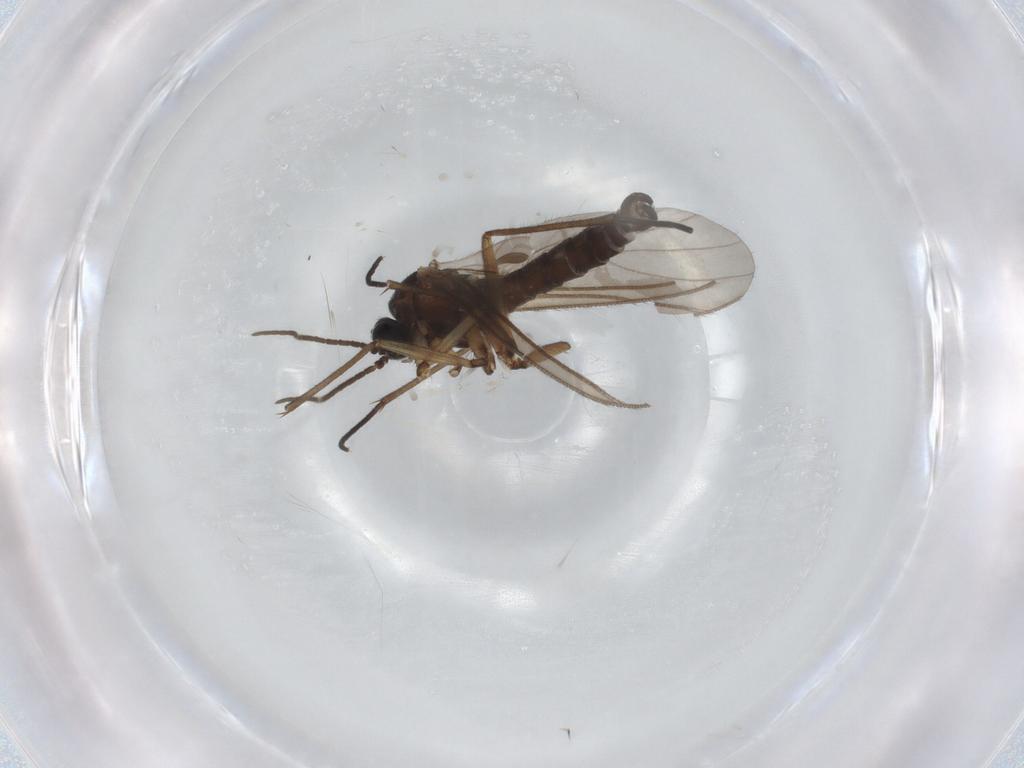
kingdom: Animalia
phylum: Arthropoda
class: Insecta
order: Diptera
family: Sciaridae
